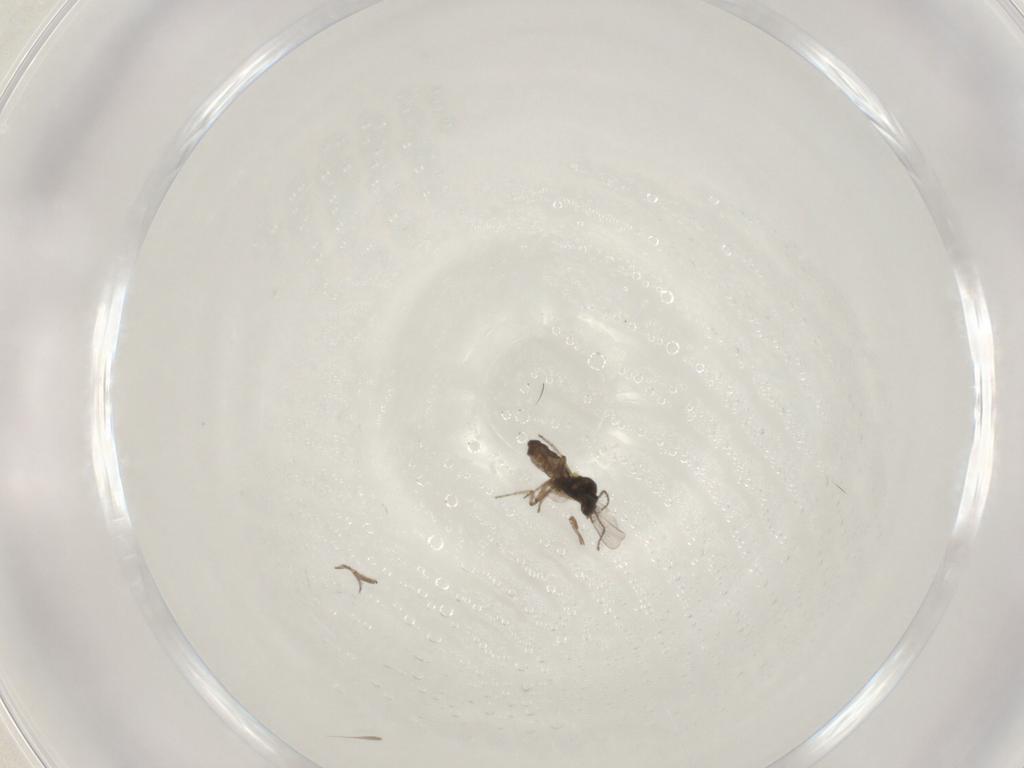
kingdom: Animalia
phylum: Arthropoda
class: Insecta
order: Diptera
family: Ceratopogonidae
